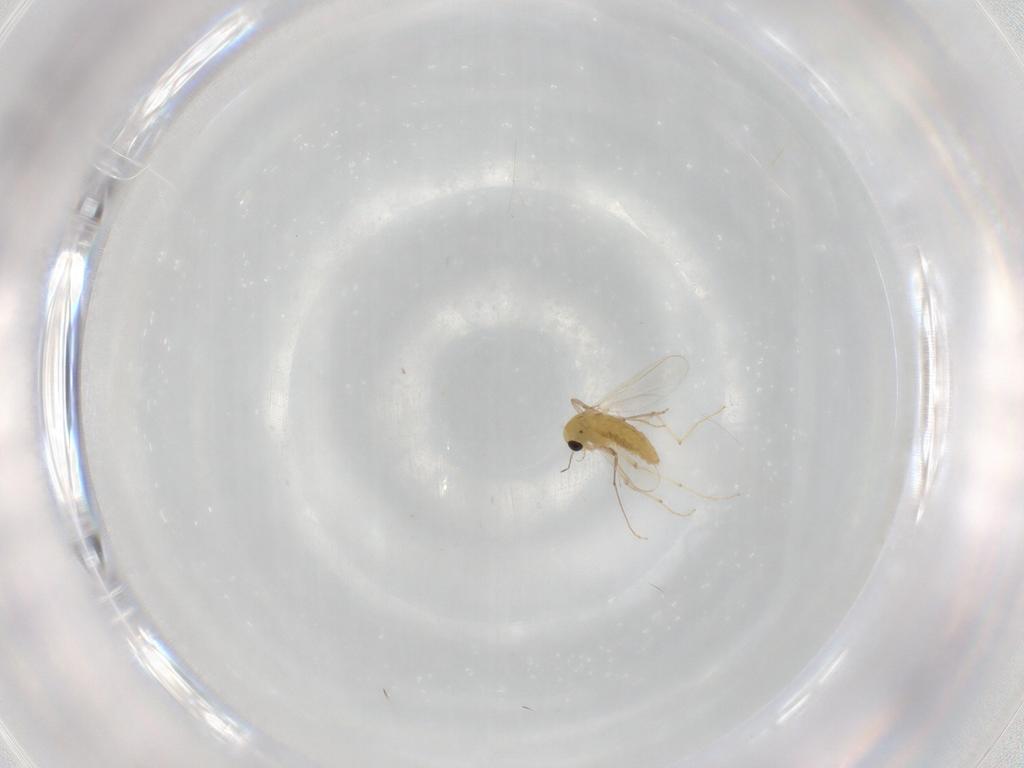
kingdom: Animalia
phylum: Arthropoda
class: Insecta
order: Diptera
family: Chironomidae
